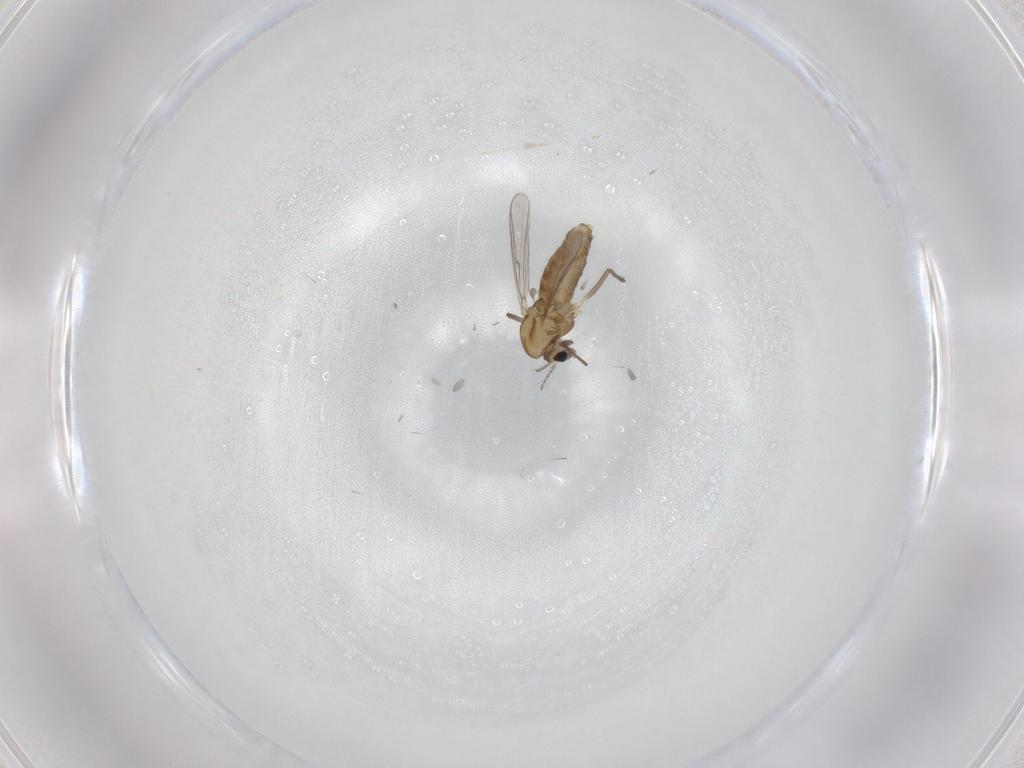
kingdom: Animalia
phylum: Arthropoda
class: Insecta
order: Diptera
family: Chironomidae
